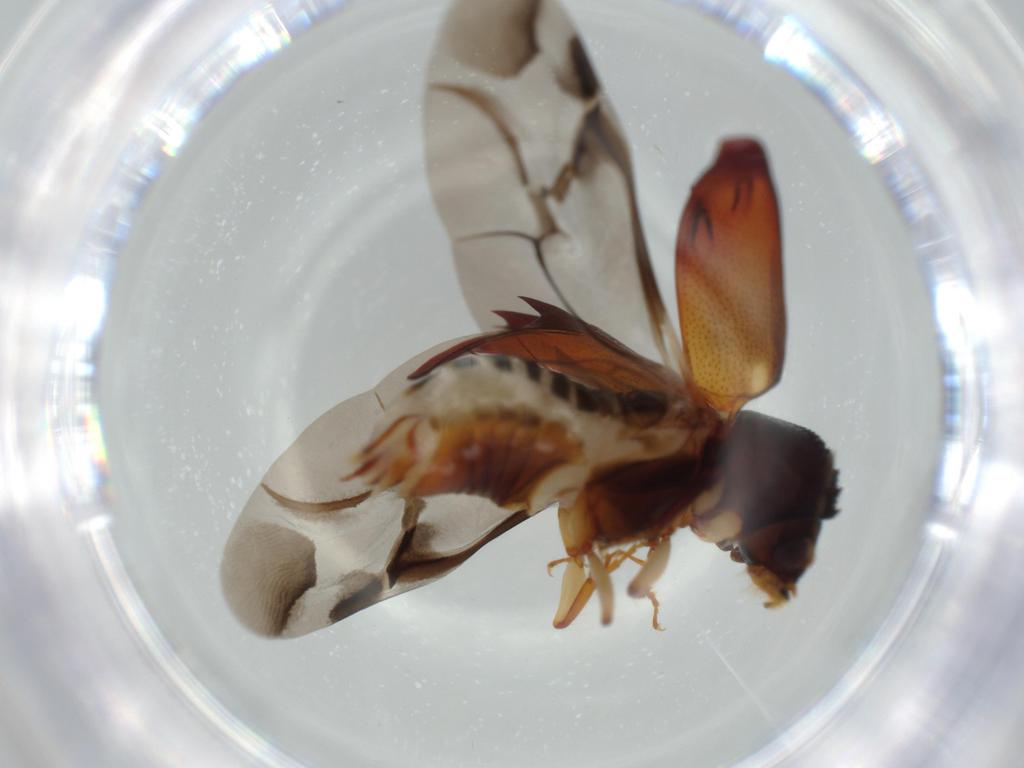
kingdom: Animalia
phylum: Arthropoda
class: Insecta
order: Coleoptera
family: Bostrichidae
